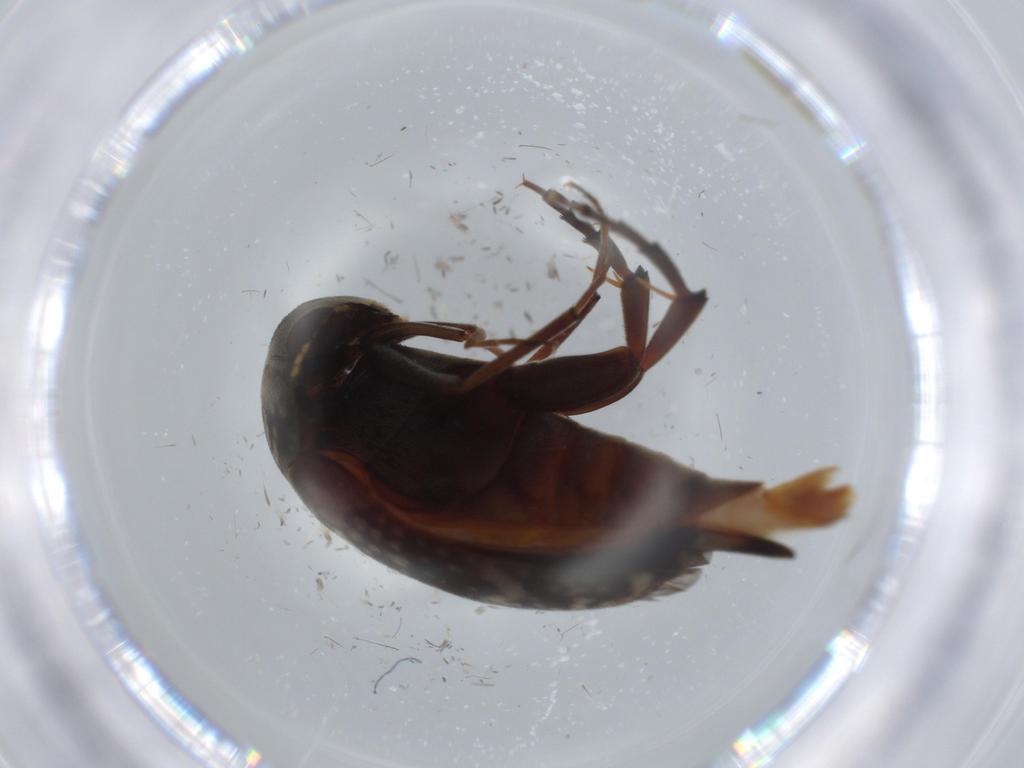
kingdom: Animalia
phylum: Arthropoda
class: Insecta
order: Coleoptera
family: Chrysomelidae
